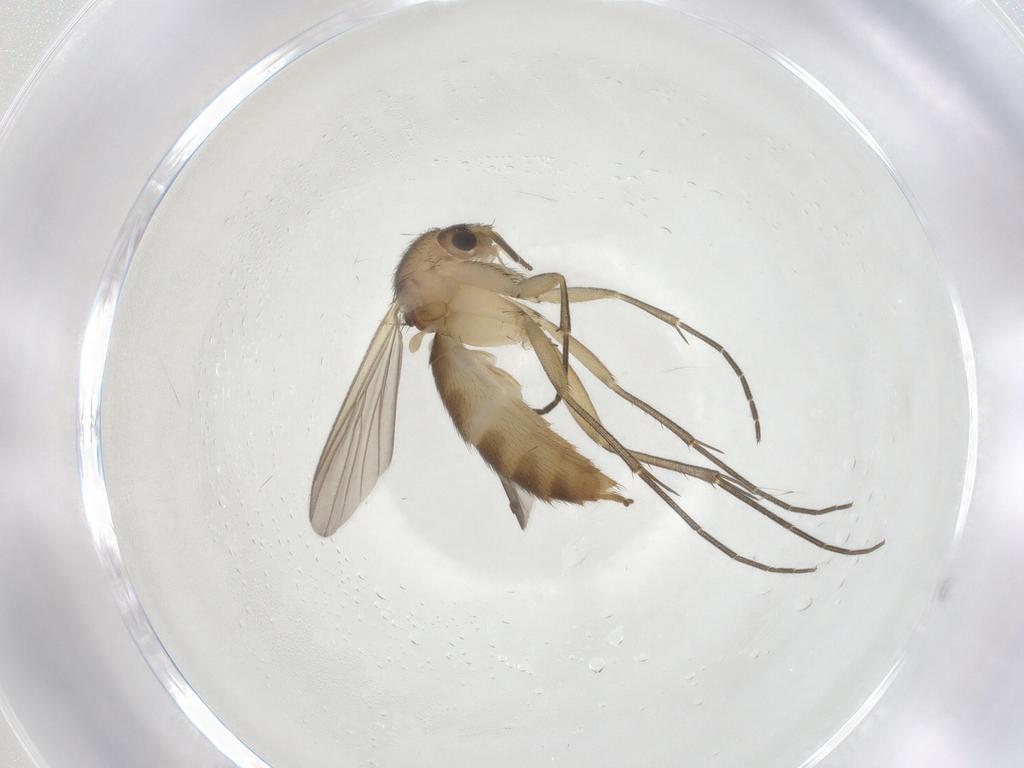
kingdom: Animalia
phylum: Arthropoda
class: Insecta
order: Diptera
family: Mycetophilidae
